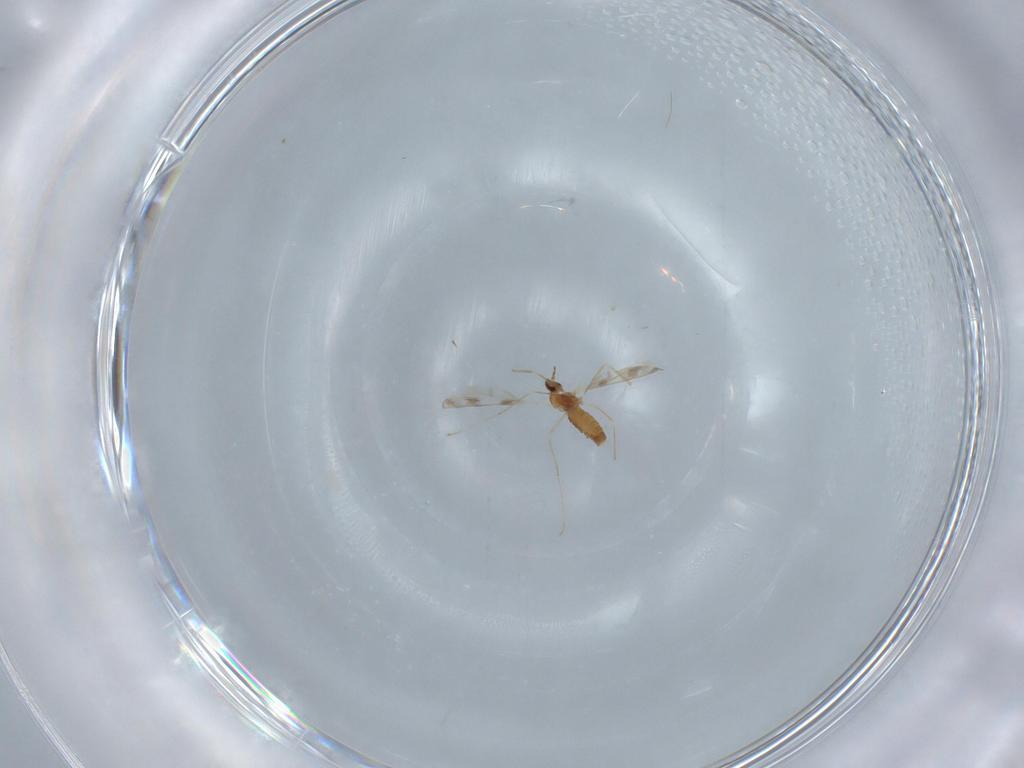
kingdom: Animalia
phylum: Arthropoda
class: Insecta
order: Diptera
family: Cecidomyiidae
